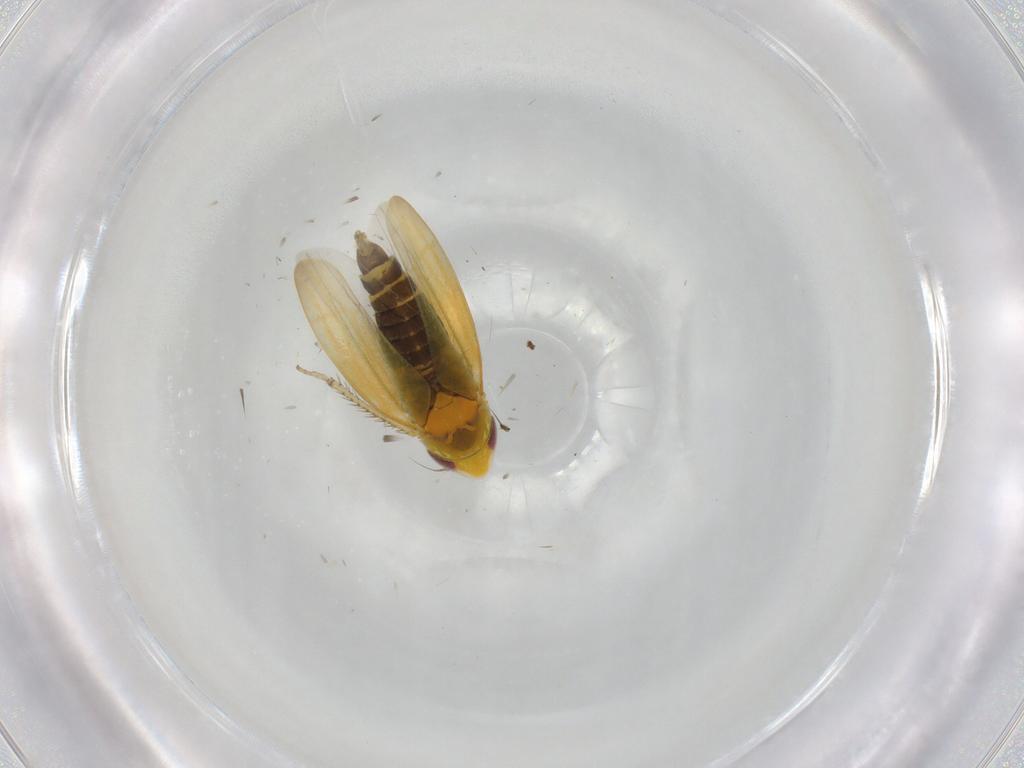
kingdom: Animalia
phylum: Arthropoda
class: Insecta
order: Hemiptera
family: Cicadellidae
